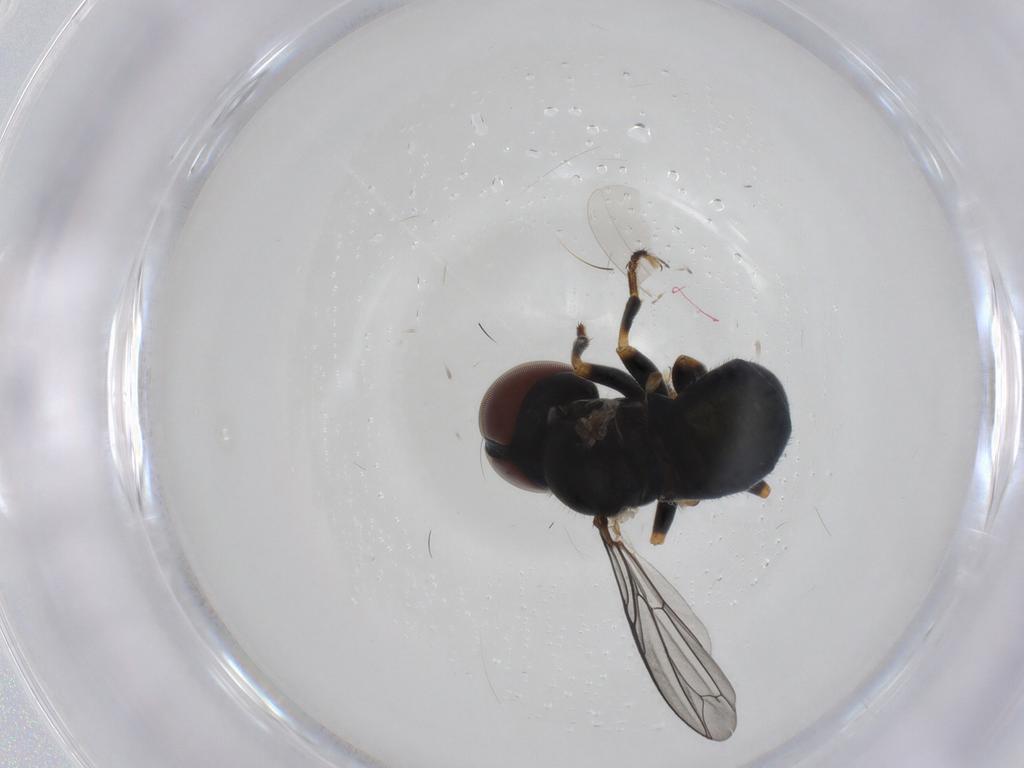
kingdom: Animalia
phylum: Arthropoda
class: Insecta
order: Diptera
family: Pipunculidae
